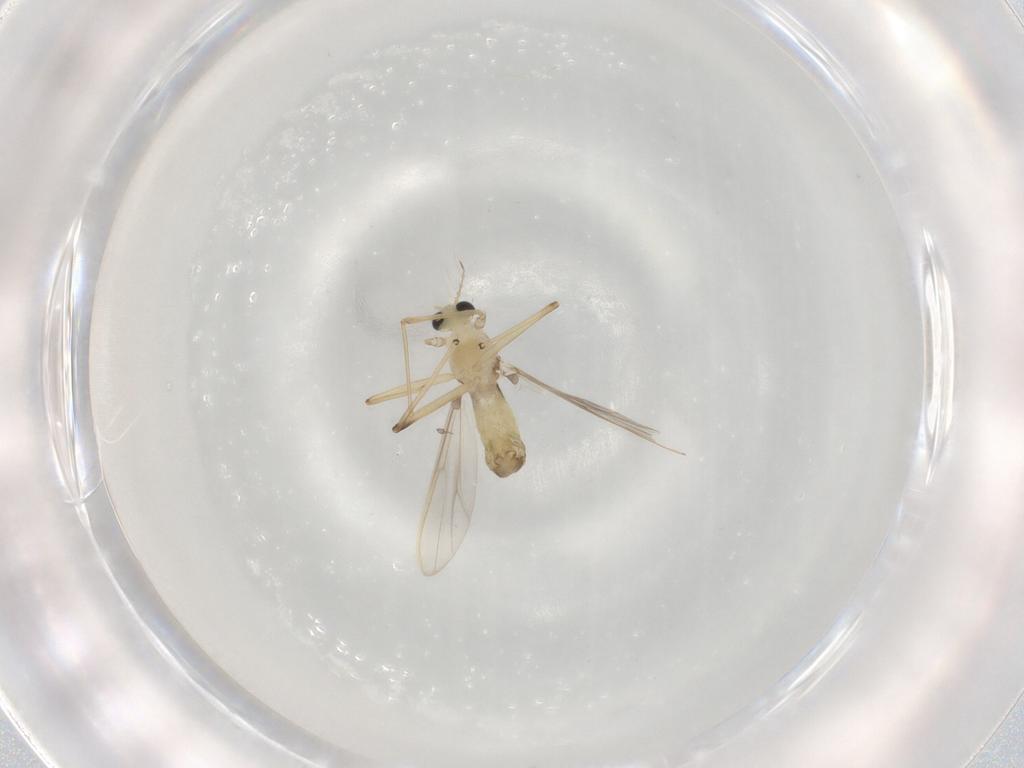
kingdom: Animalia
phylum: Arthropoda
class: Insecta
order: Diptera
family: Chironomidae
